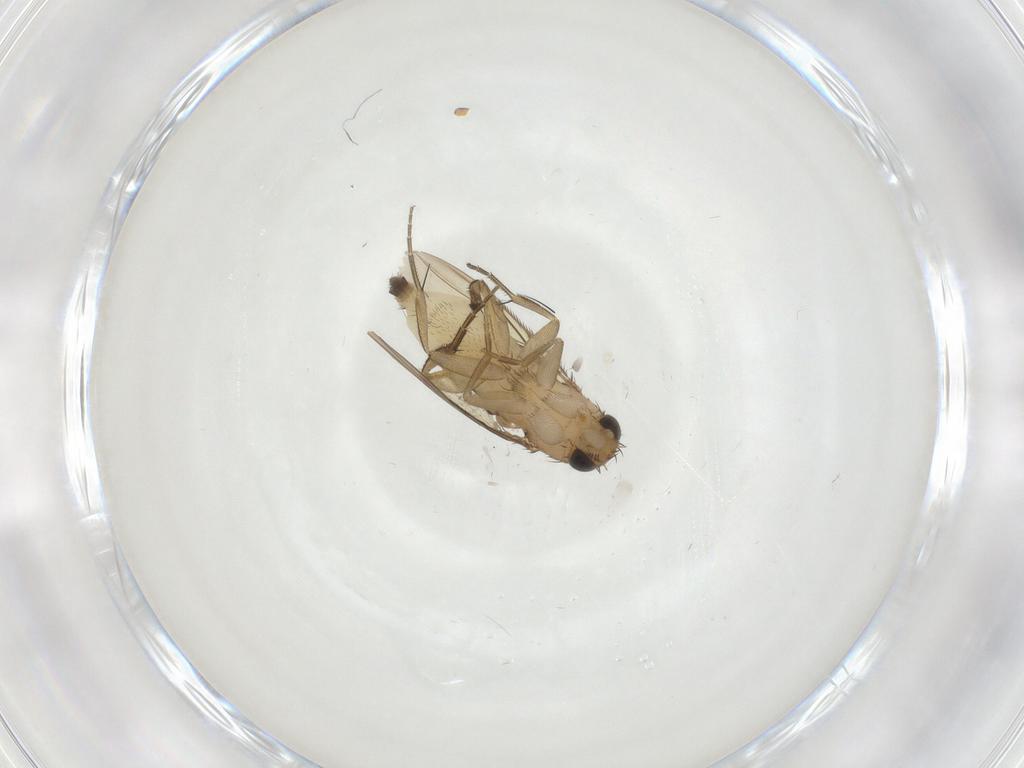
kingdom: Animalia
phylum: Arthropoda
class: Insecta
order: Diptera
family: Phoridae
